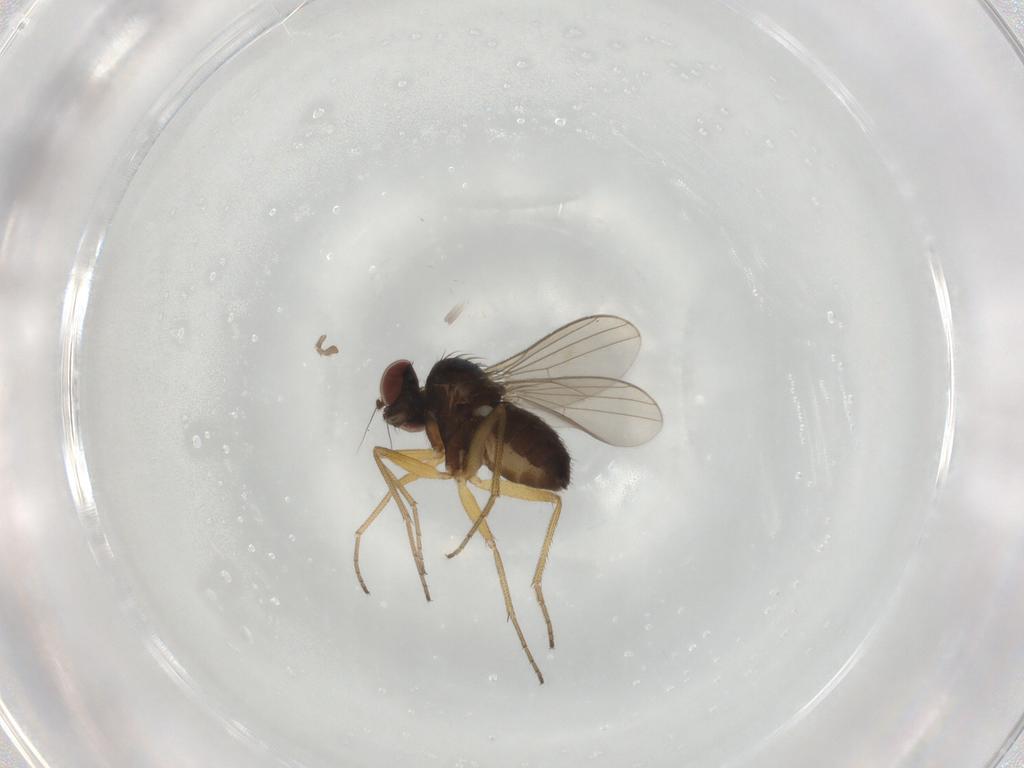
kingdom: Animalia
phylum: Arthropoda
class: Insecta
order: Diptera
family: Dolichopodidae
